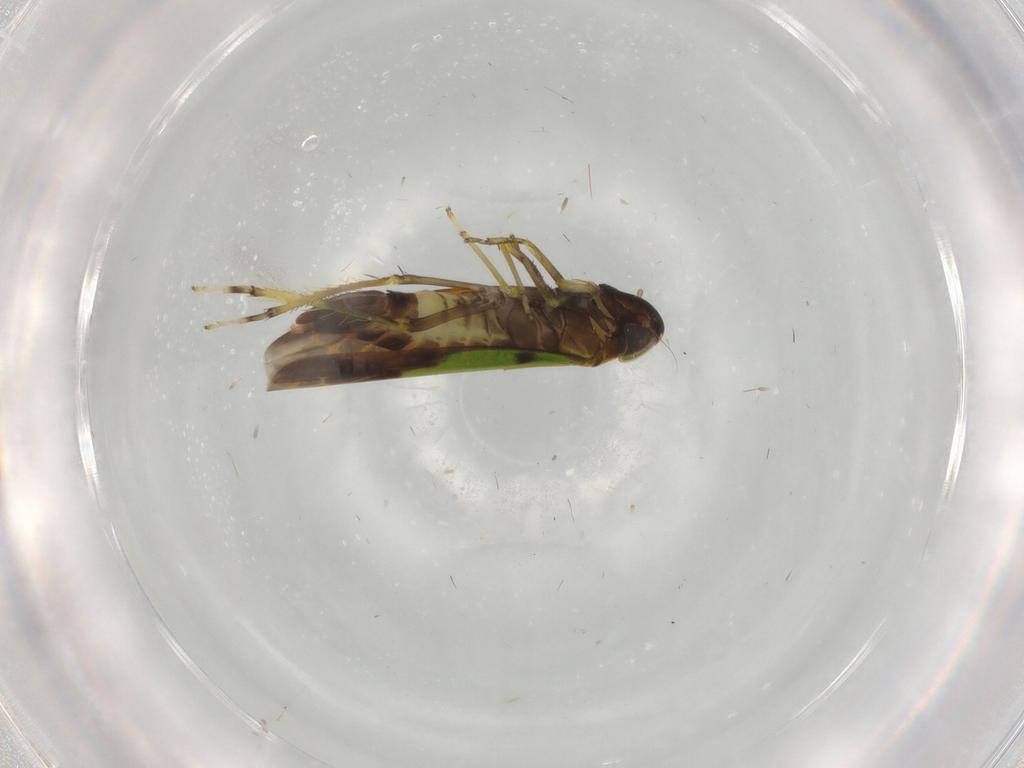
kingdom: Animalia
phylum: Arthropoda
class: Insecta
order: Hemiptera
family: Cicadellidae
